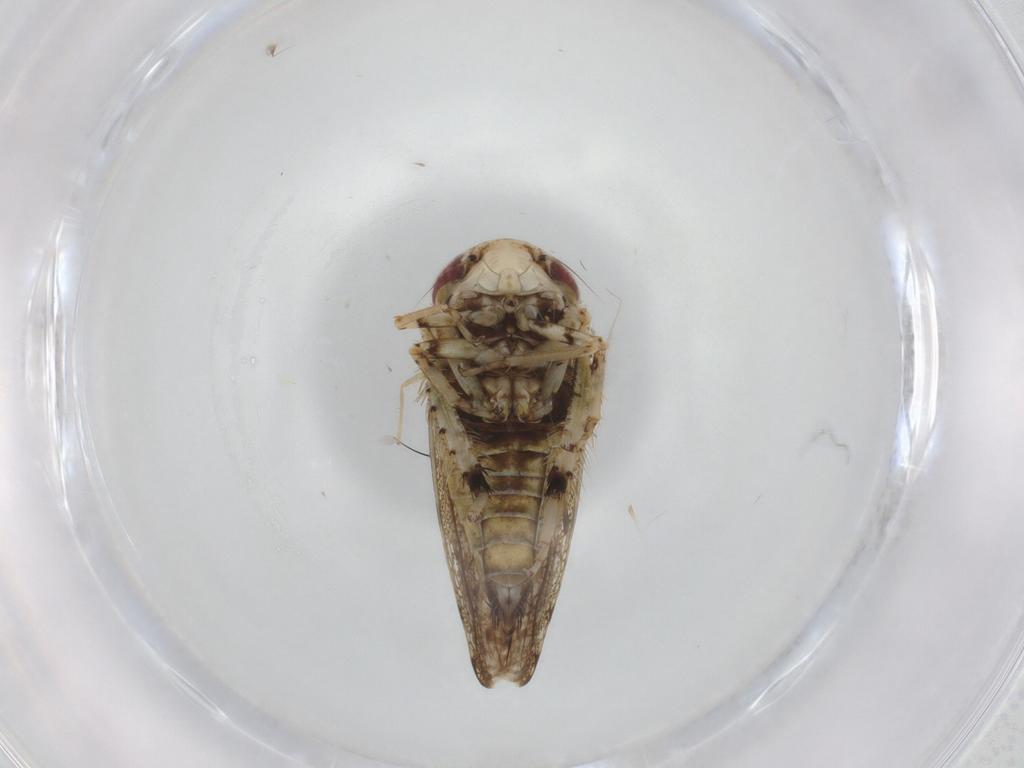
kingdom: Animalia
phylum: Arthropoda
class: Insecta
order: Hemiptera
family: Cicadellidae
